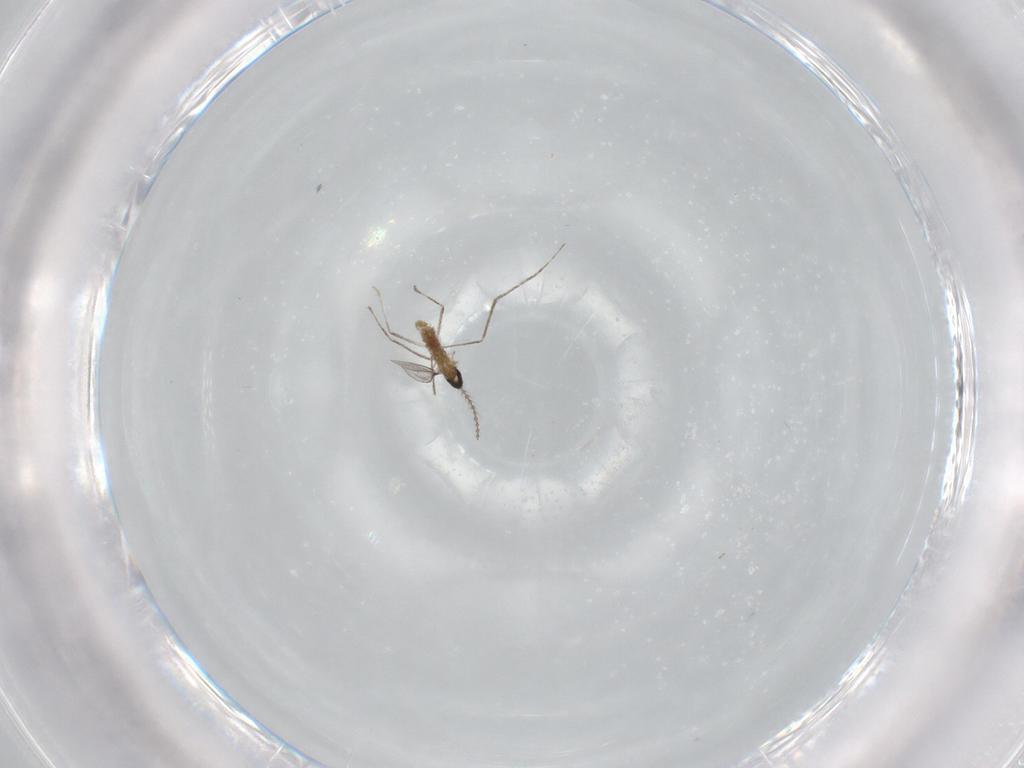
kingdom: Animalia
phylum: Arthropoda
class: Insecta
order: Diptera
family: Cecidomyiidae
